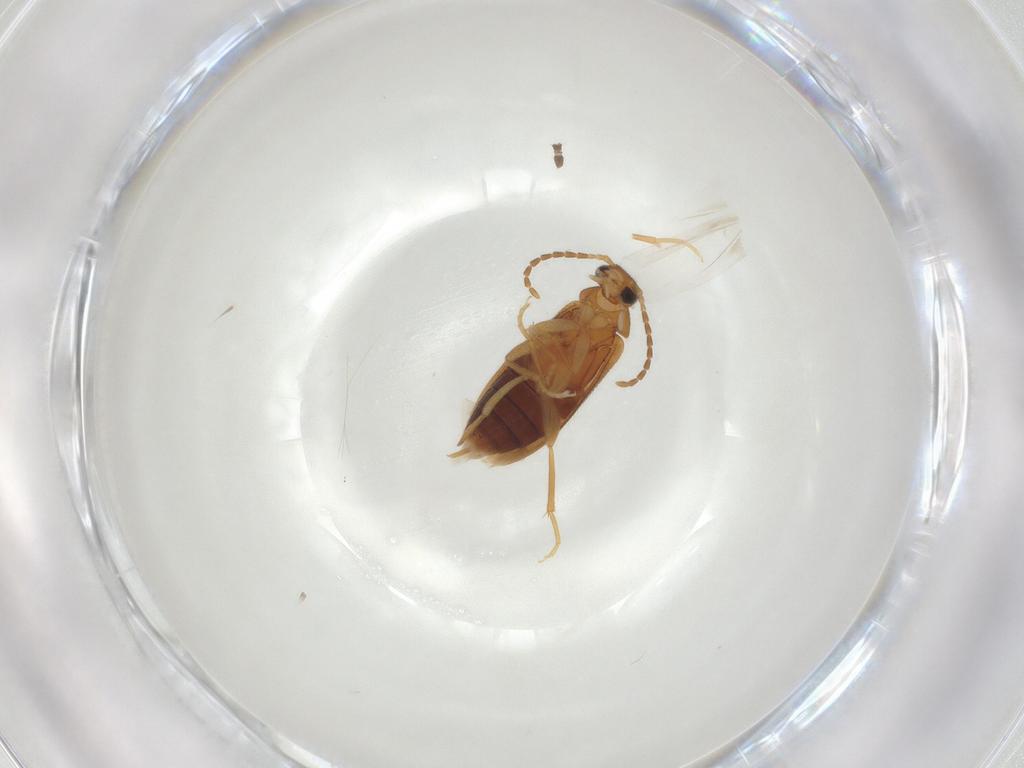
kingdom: Animalia
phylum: Arthropoda
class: Insecta
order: Coleoptera
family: Scraptiidae
